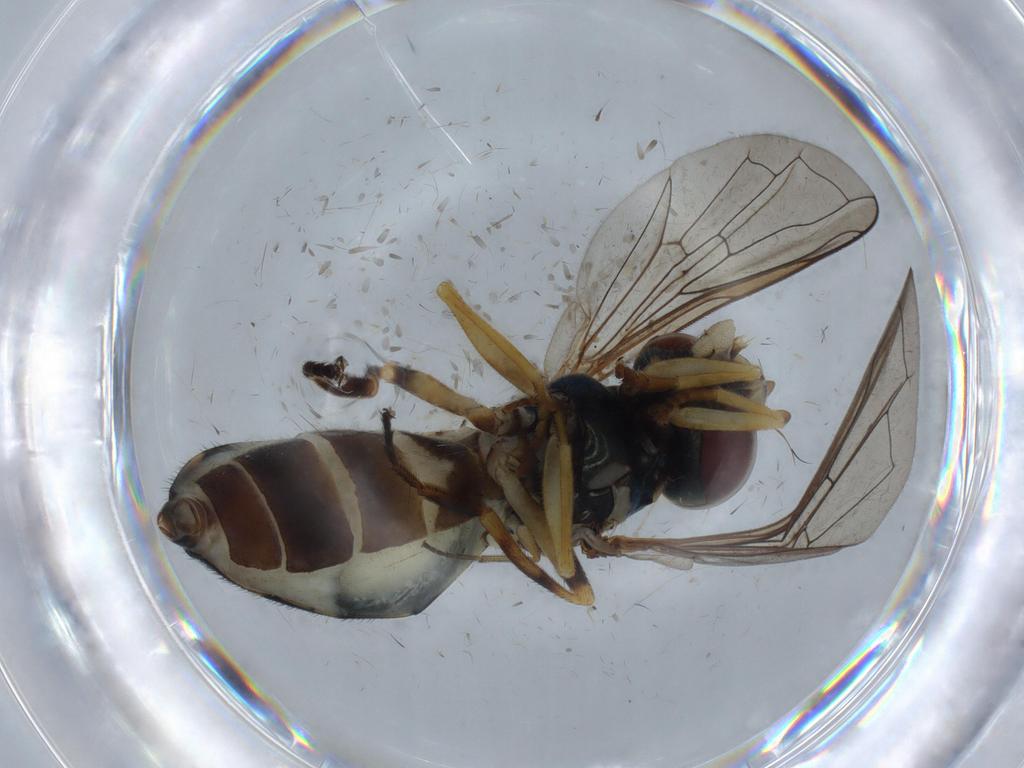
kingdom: Animalia
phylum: Arthropoda
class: Insecta
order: Diptera
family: Syrphidae
